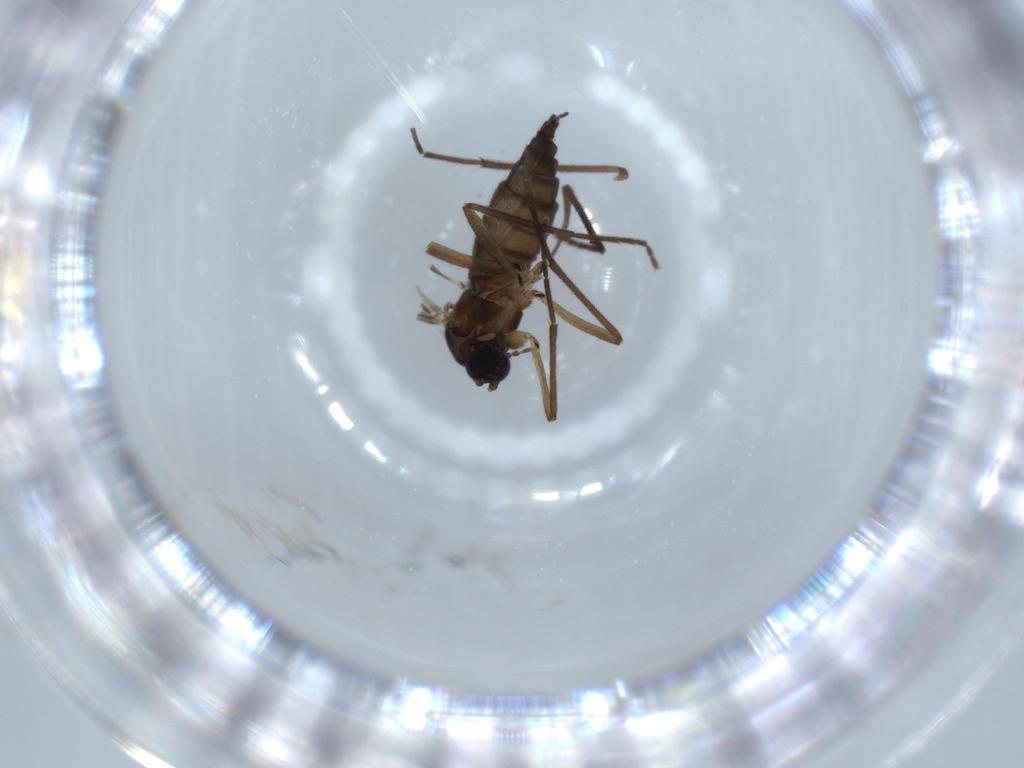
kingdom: Animalia
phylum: Arthropoda
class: Insecta
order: Diptera
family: Sciaridae
